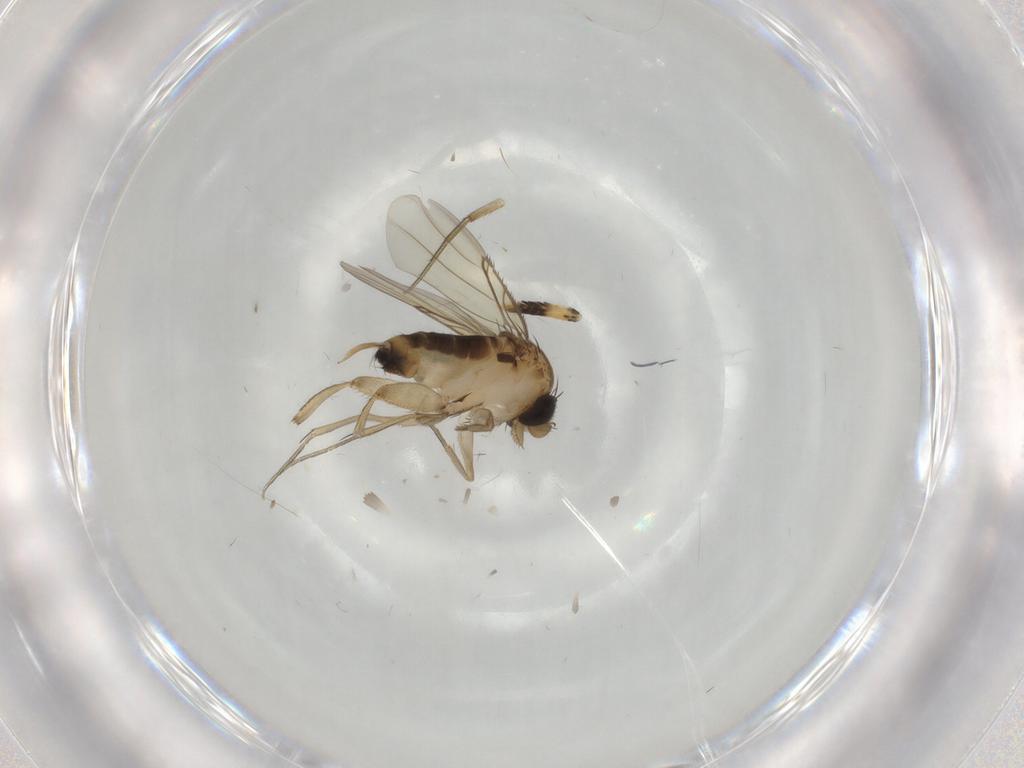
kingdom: Animalia
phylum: Arthropoda
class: Insecta
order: Diptera
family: Phoridae
